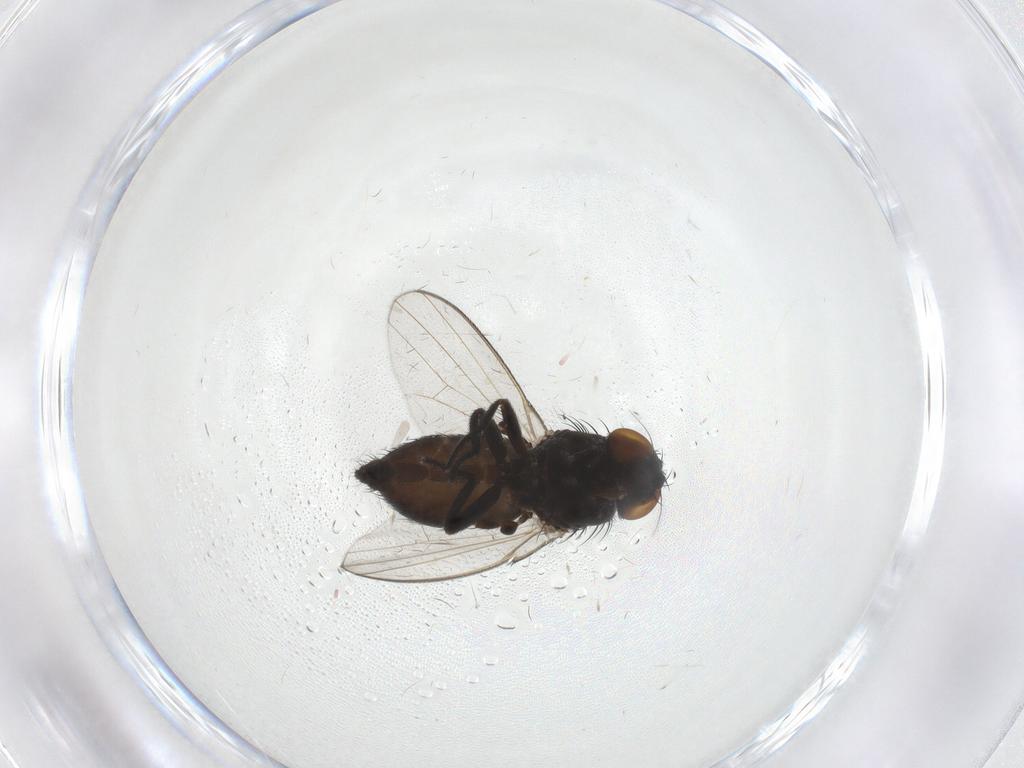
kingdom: Animalia
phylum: Arthropoda
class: Insecta
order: Diptera
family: Milichiidae
